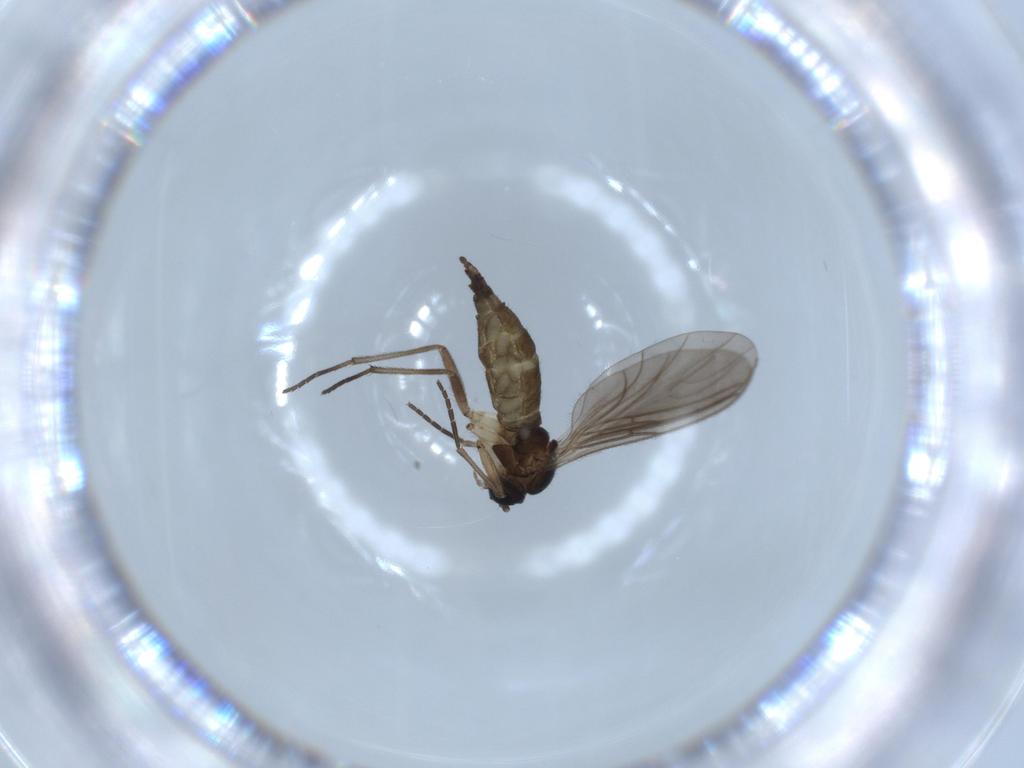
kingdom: Animalia
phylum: Arthropoda
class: Insecta
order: Diptera
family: Sciaridae
